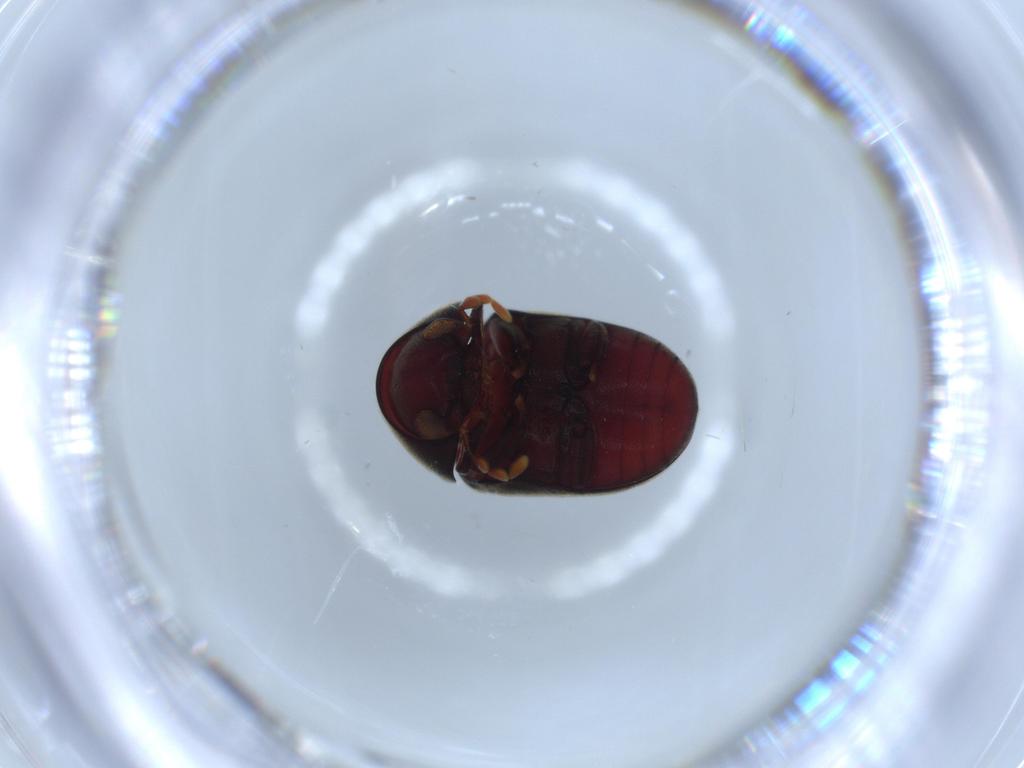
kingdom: Animalia
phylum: Arthropoda
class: Insecta
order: Coleoptera
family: Ptinidae
